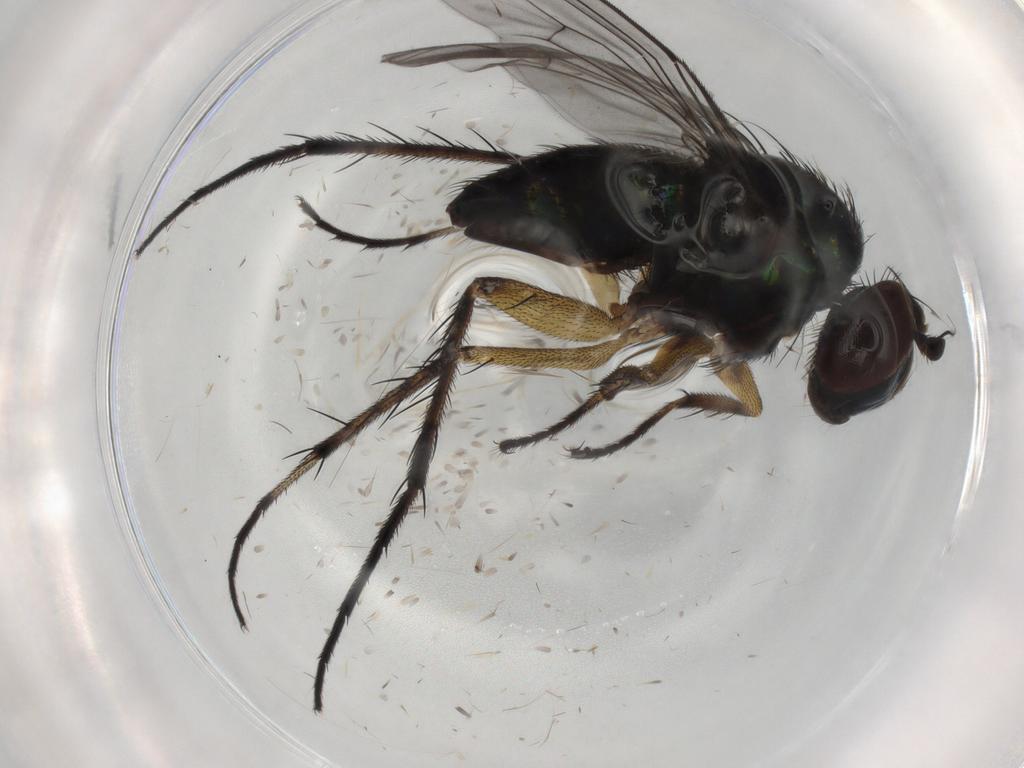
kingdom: Animalia
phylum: Arthropoda
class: Insecta
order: Diptera
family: Dolichopodidae
